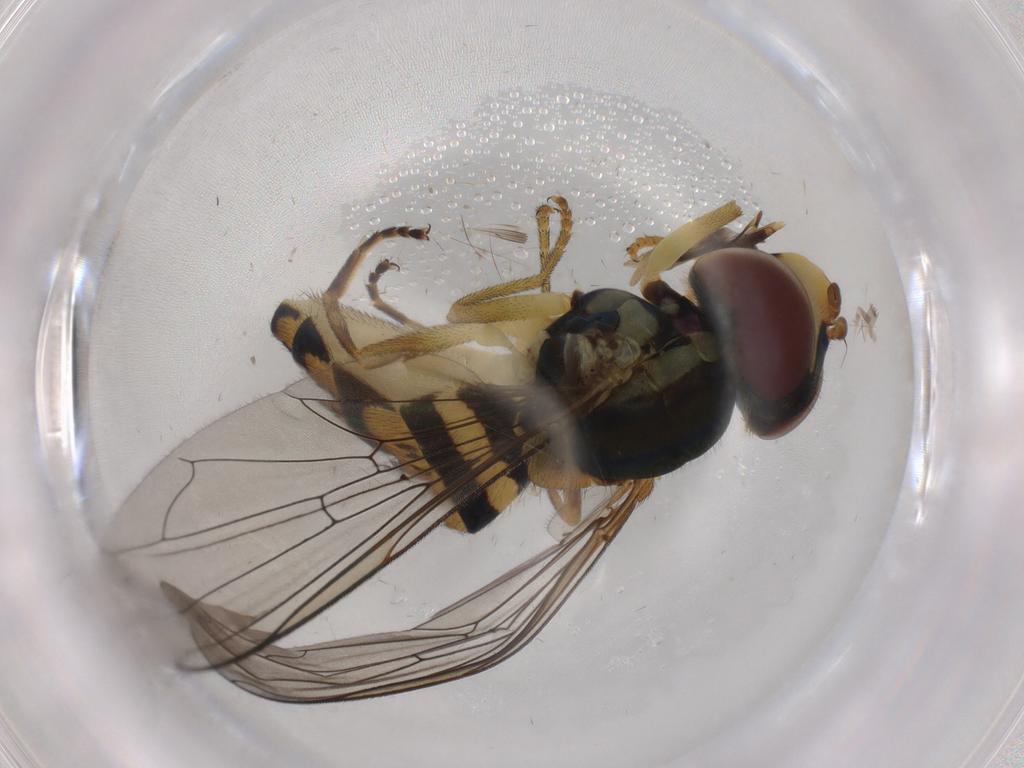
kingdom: Animalia
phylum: Arthropoda
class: Insecta
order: Diptera
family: Syrphidae
